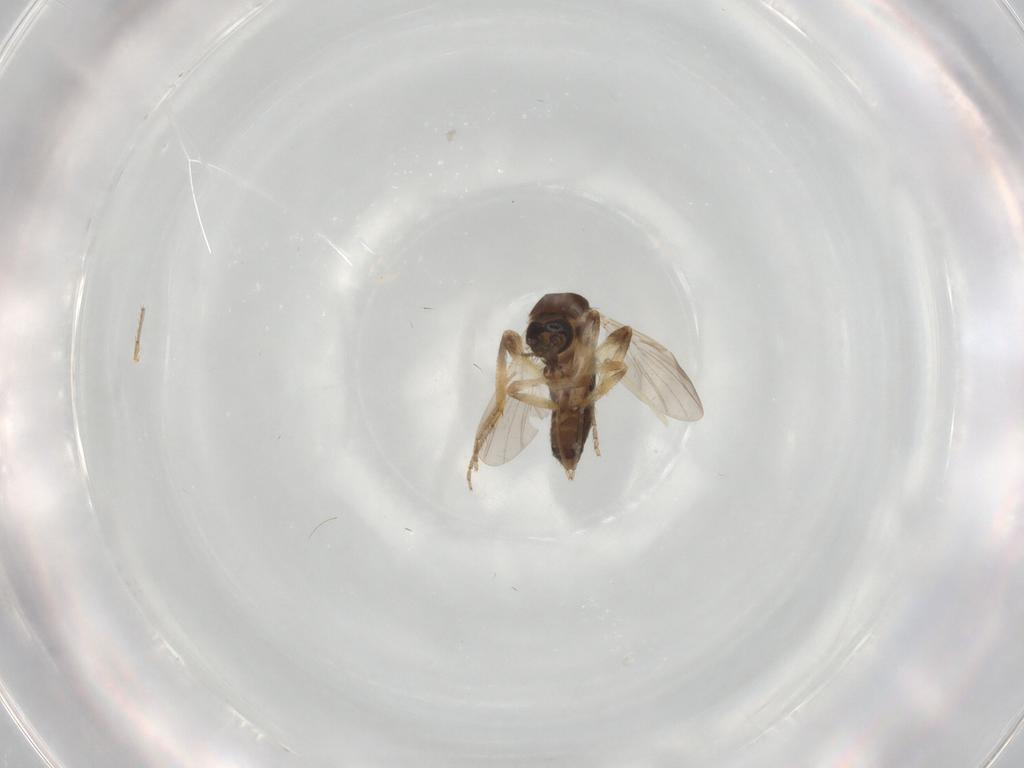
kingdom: Animalia
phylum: Arthropoda
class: Insecta
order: Diptera
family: Ceratopogonidae
